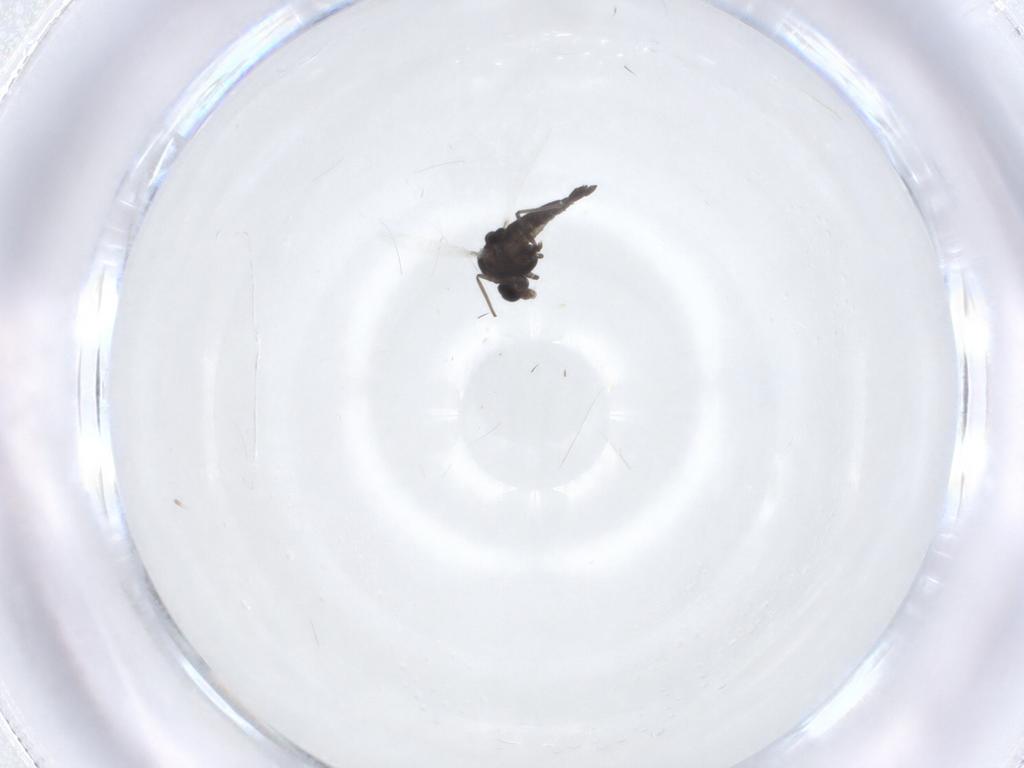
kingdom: Animalia
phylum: Arthropoda
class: Insecta
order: Diptera
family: Chironomidae
